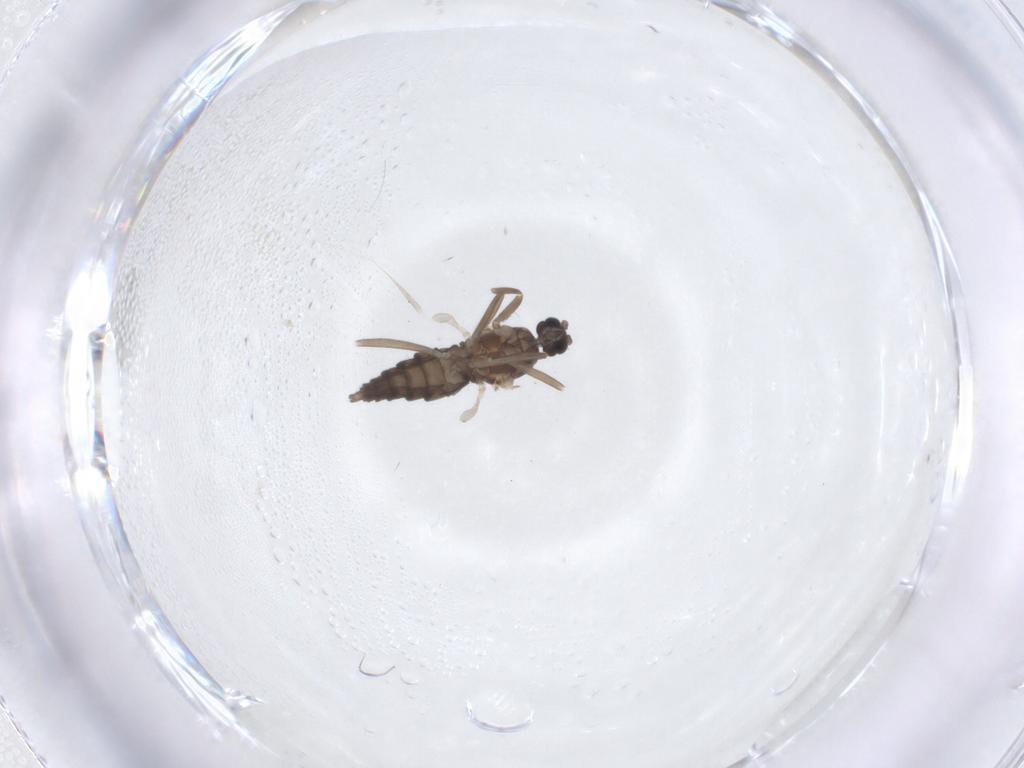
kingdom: Animalia
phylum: Arthropoda
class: Insecta
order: Diptera
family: Cecidomyiidae
